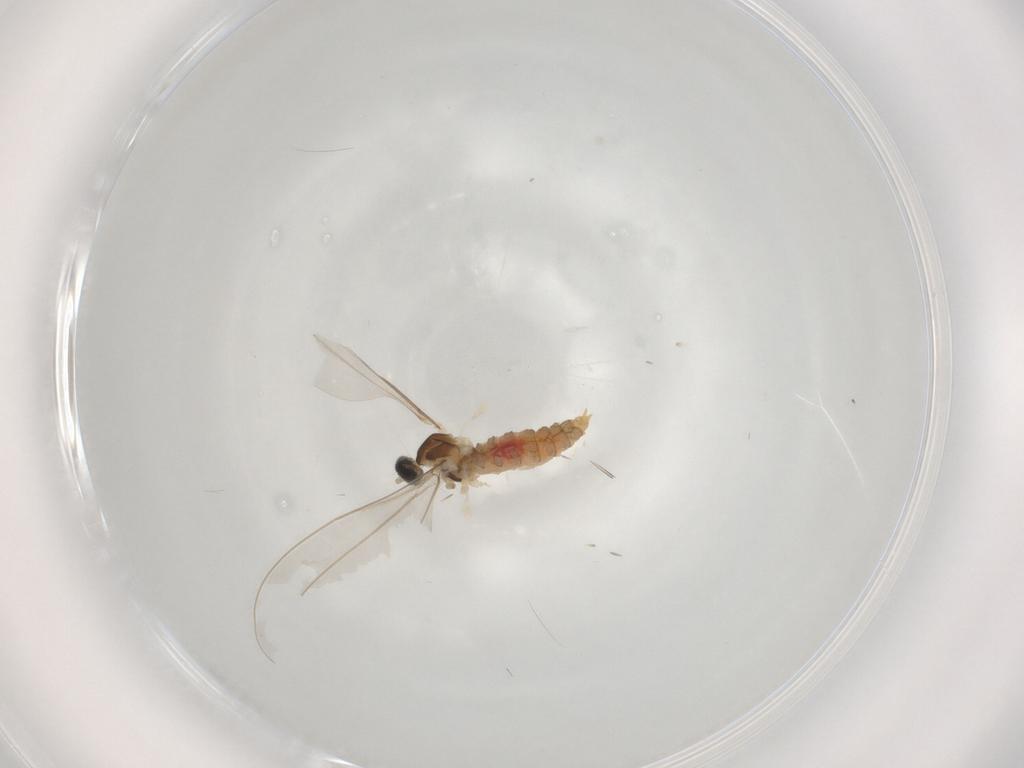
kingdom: Animalia
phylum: Arthropoda
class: Insecta
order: Diptera
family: Cecidomyiidae
